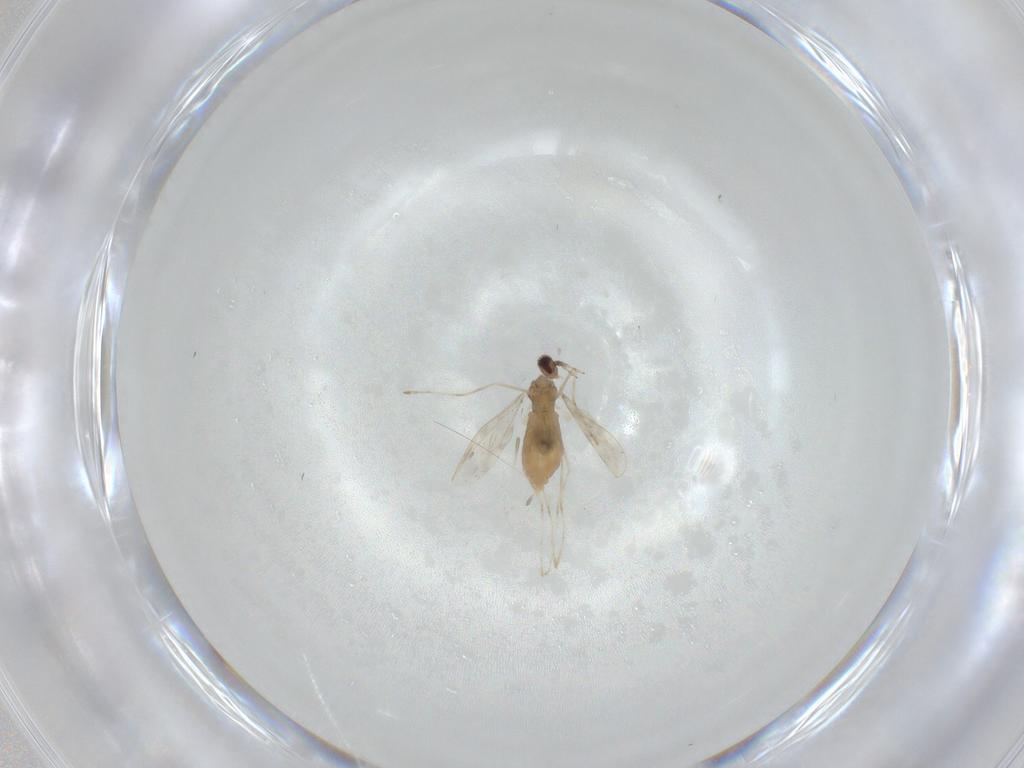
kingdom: Animalia
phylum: Arthropoda
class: Insecta
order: Diptera
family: Cecidomyiidae
